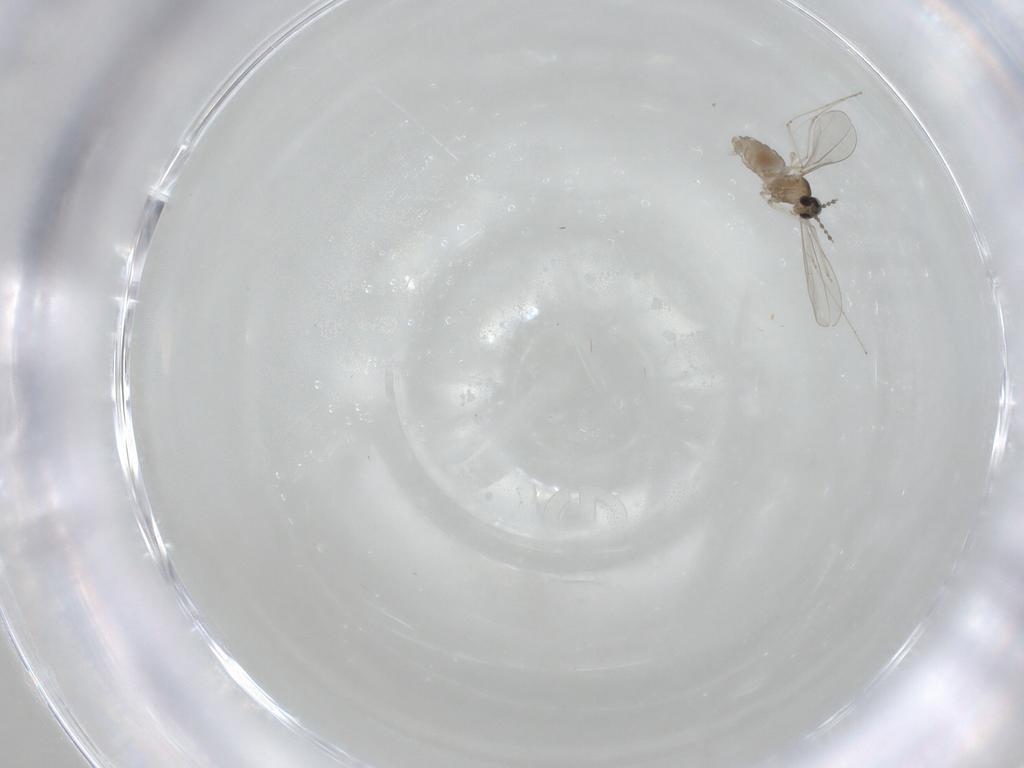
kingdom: Animalia
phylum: Arthropoda
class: Insecta
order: Diptera
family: Cecidomyiidae
